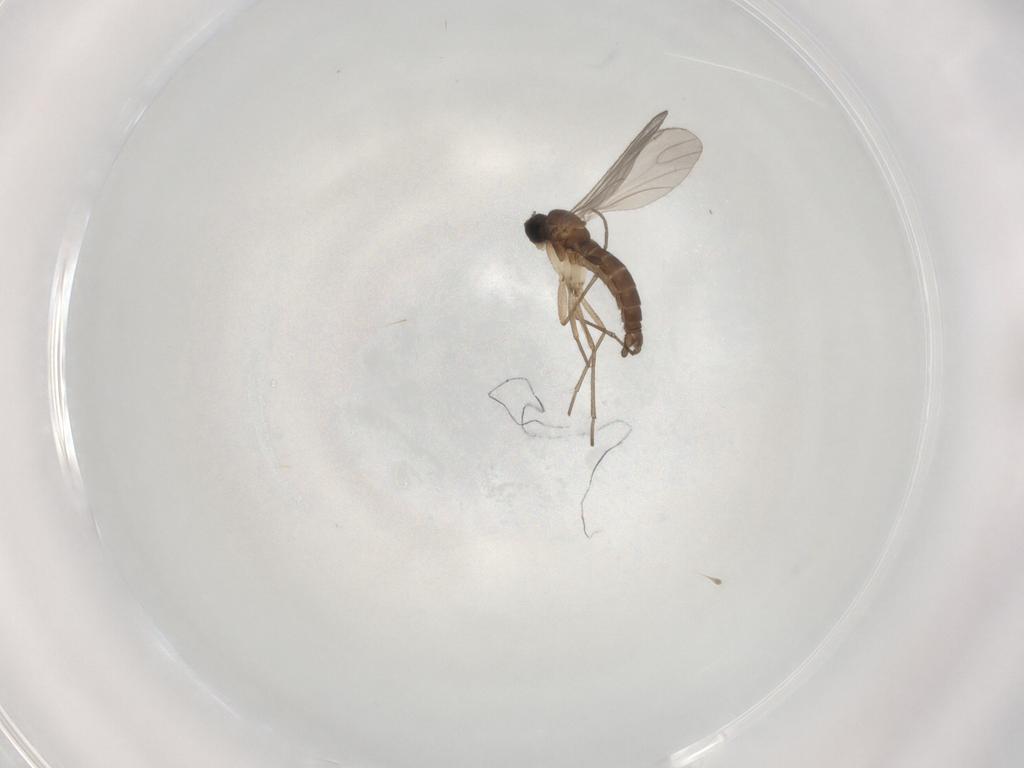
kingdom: Animalia
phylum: Arthropoda
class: Insecta
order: Diptera
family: Sciaridae
